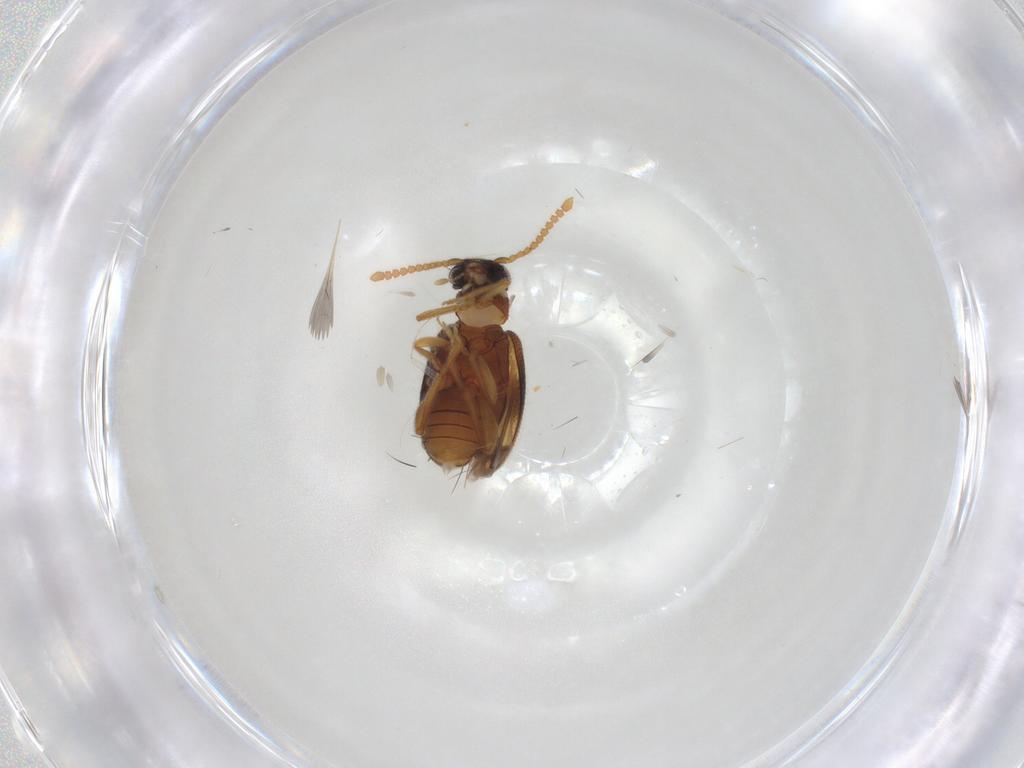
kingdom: Animalia
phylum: Arthropoda
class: Insecta
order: Coleoptera
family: Aderidae
